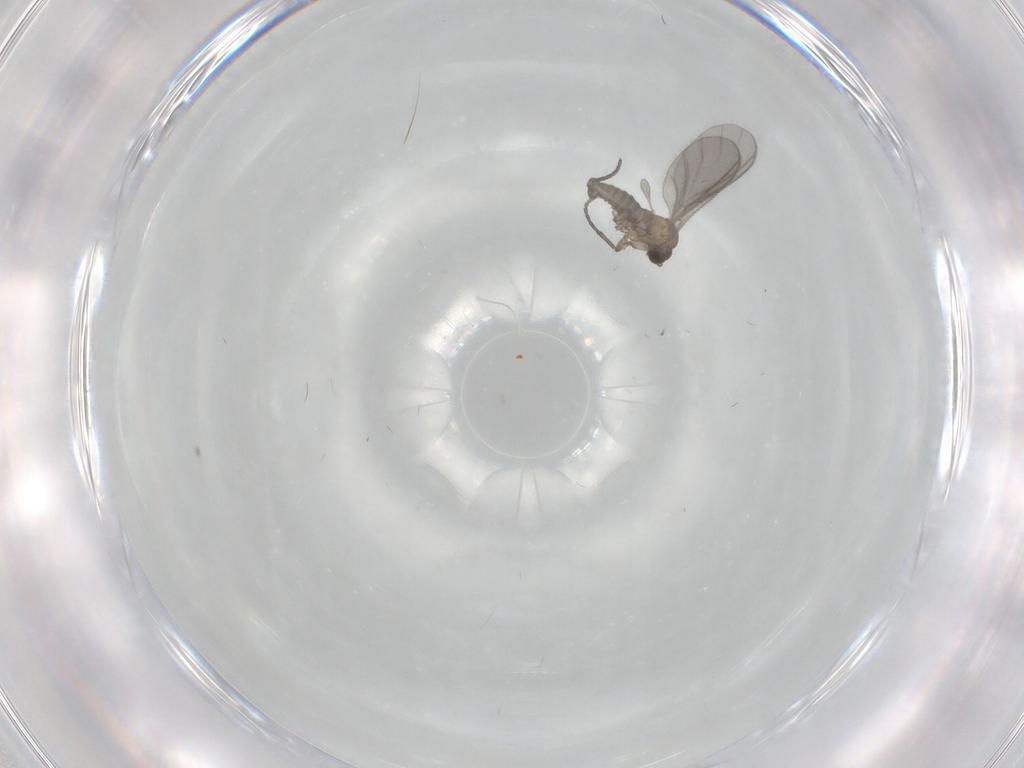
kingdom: Animalia
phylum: Arthropoda
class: Insecta
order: Diptera
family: Sciaridae
